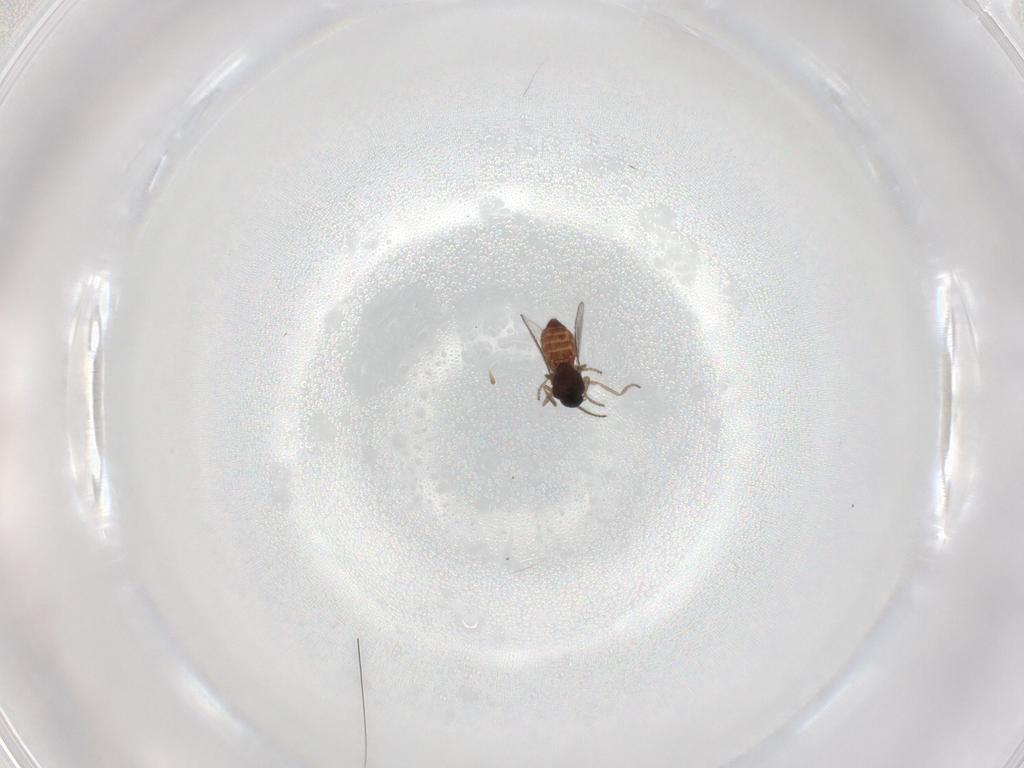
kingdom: Animalia
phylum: Arthropoda
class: Insecta
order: Diptera
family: Ceratopogonidae
